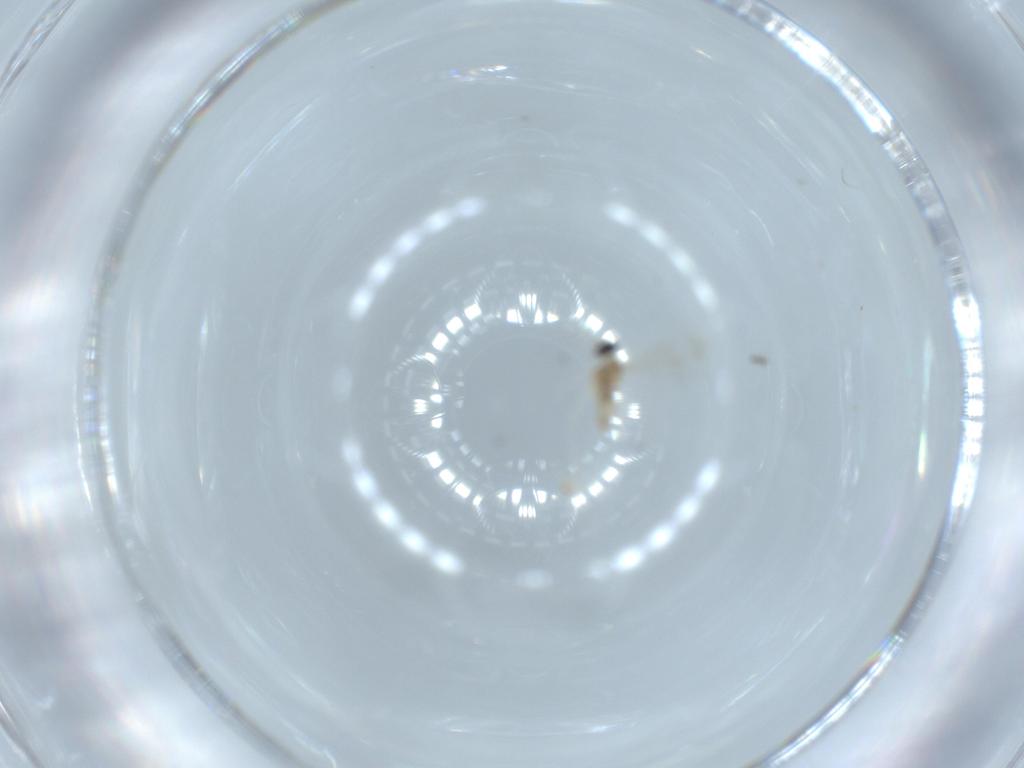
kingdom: Animalia
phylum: Arthropoda
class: Insecta
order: Diptera
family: Cecidomyiidae
